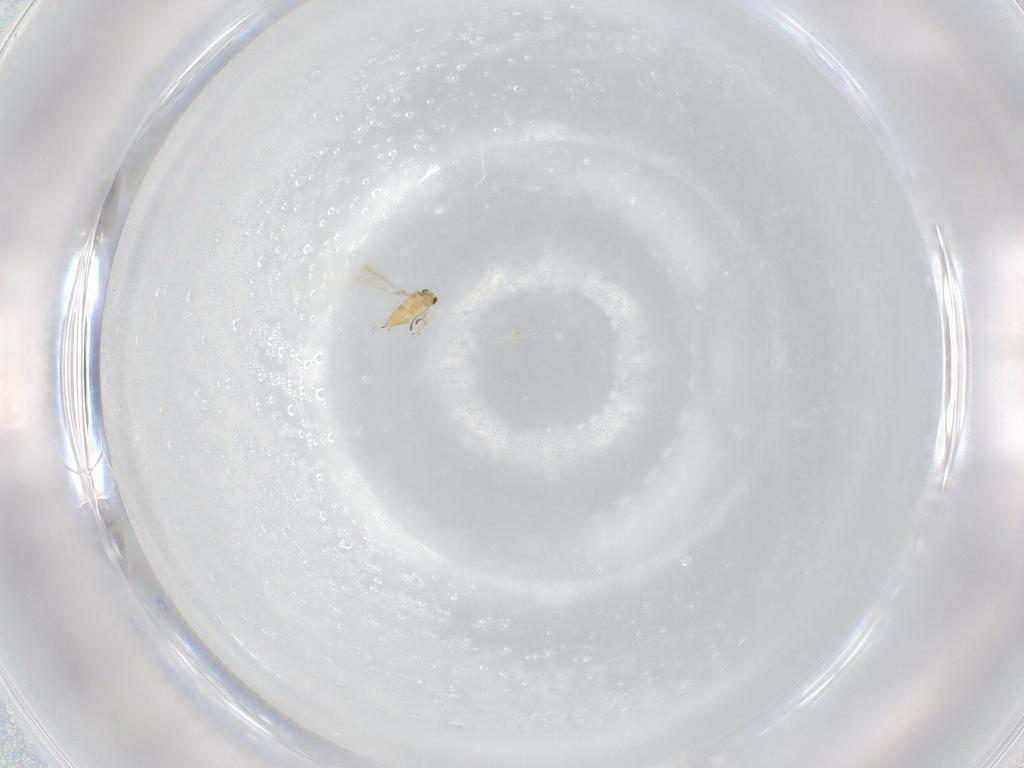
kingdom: Animalia
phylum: Arthropoda
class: Insecta
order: Hymenoptera
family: Mymaridae
